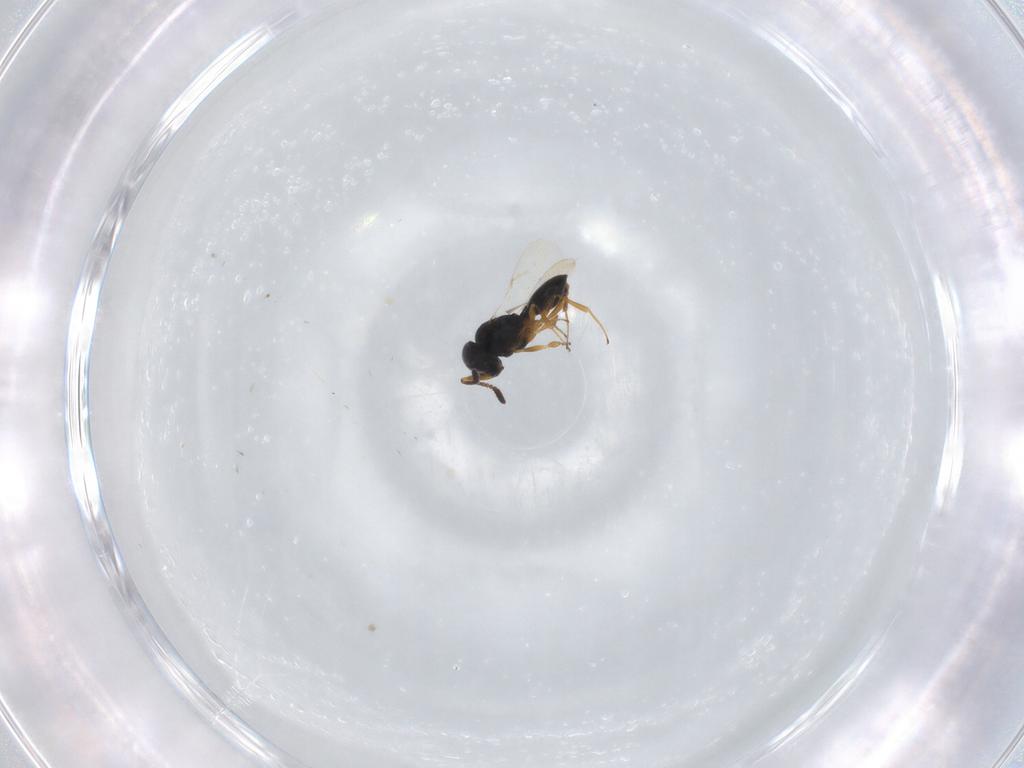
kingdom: Animalia
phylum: Arthropoda
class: Insecta
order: Hymenoptera
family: Scelionidae
